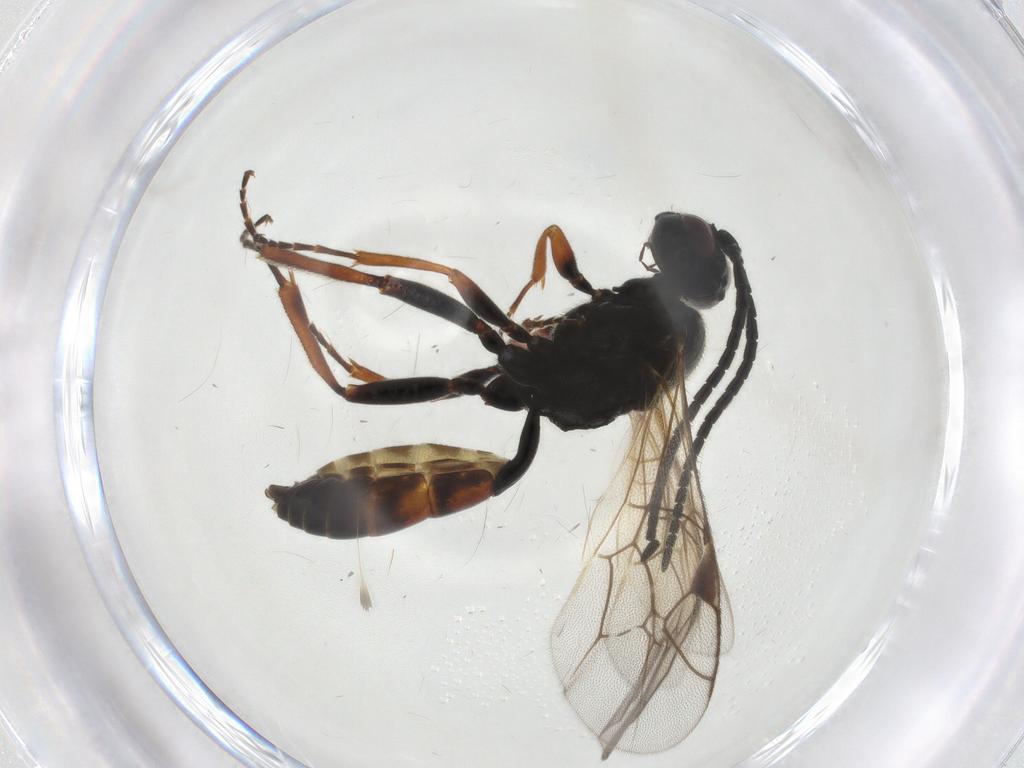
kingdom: Animalia
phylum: Arthropoda
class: Insecta
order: Hymenoptera
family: Ichneumonidae
